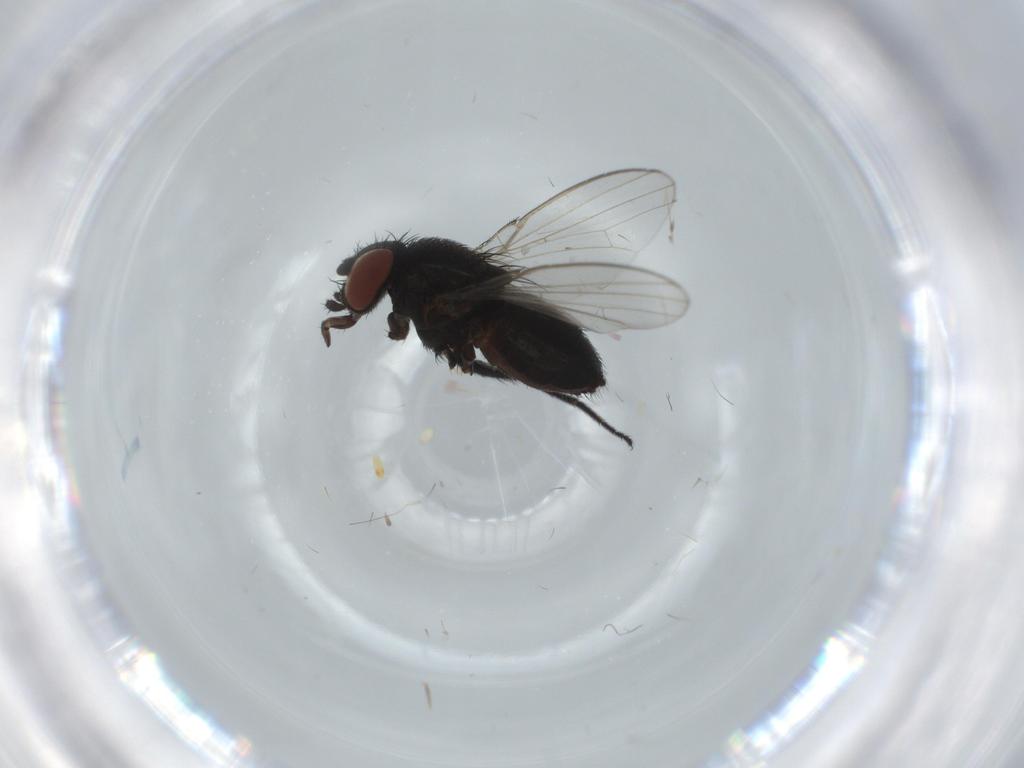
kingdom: Animalia
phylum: Arthropoda
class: Insecta
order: Diptera
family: Milichiidae
